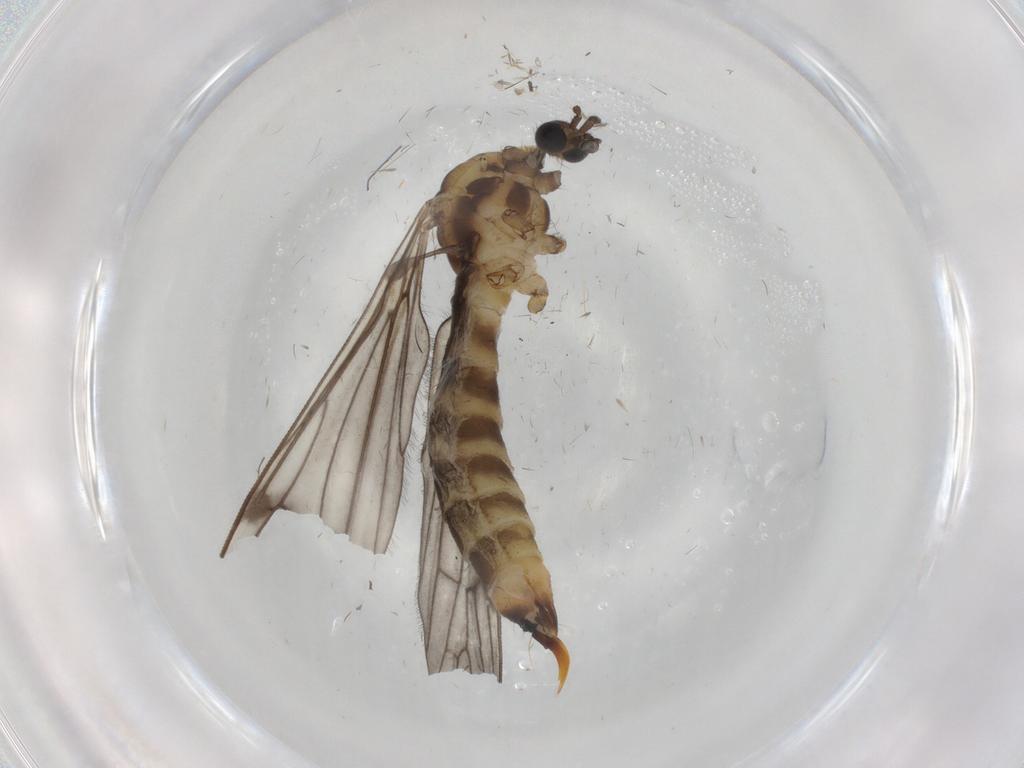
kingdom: Animalia
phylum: Arthropoda
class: Insecta
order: Diptera
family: Limoniidae
